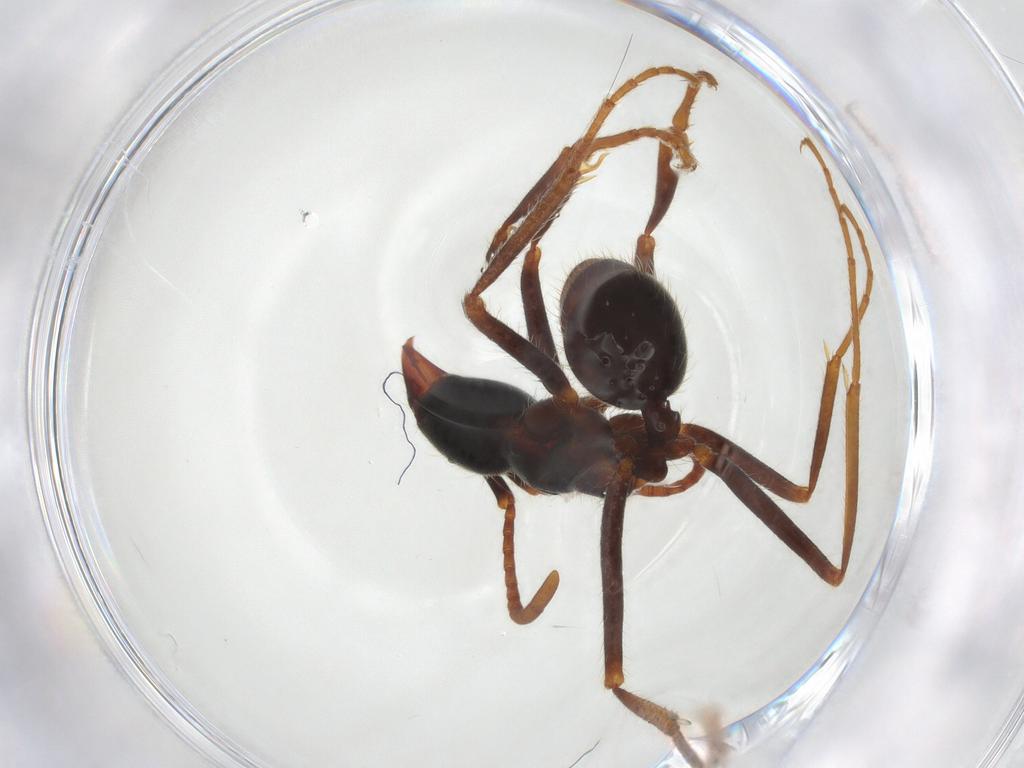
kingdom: Animalia
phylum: Arthropoda
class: Insecta
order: Hymenoptera
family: Formicidae
